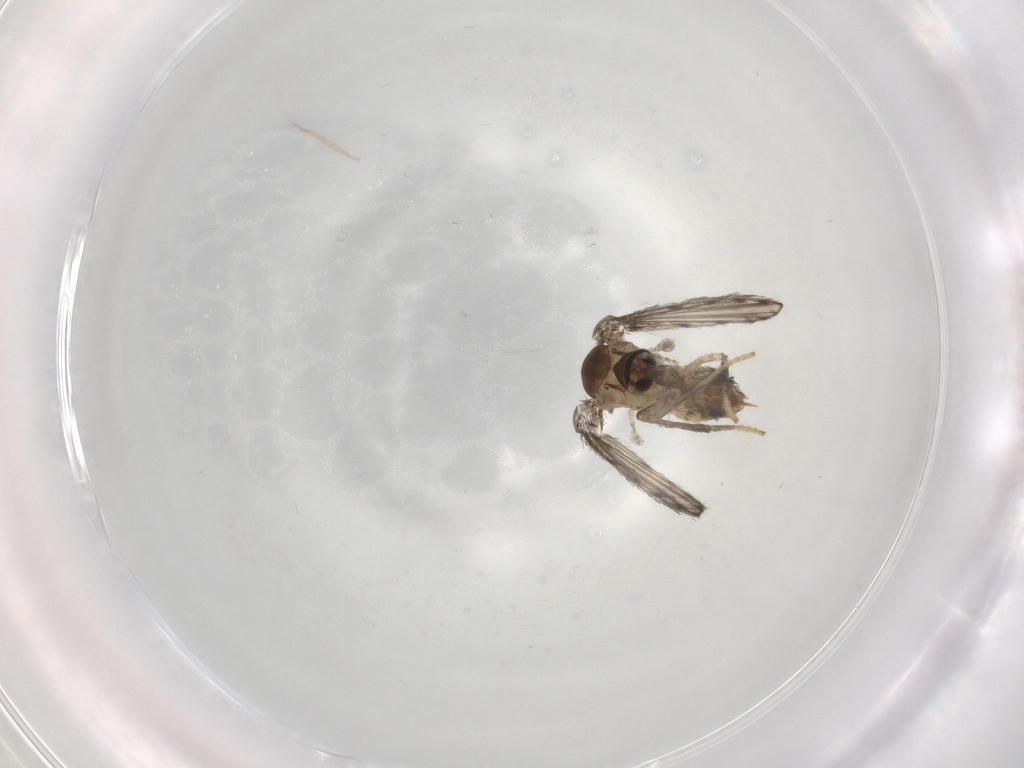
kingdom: Animalia
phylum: Arthropoda
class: Insecta
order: Diptera
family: Psychodidae
